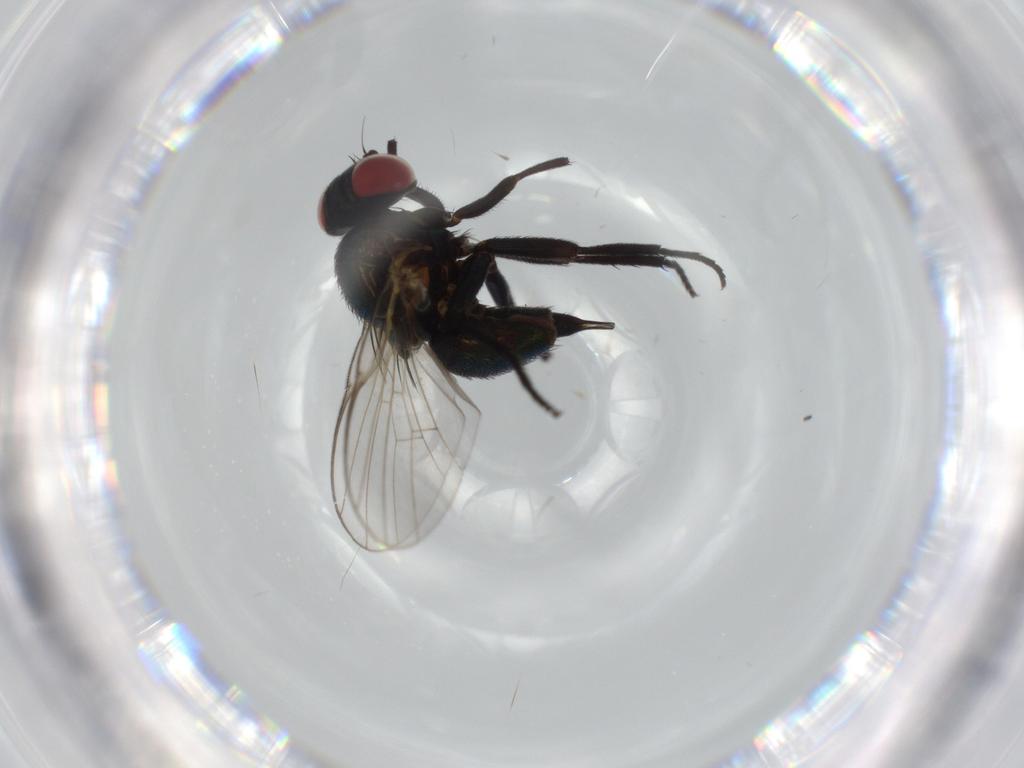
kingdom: Animalia
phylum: Arthropoda
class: Insecta
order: Diptera
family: Agromyzidae
